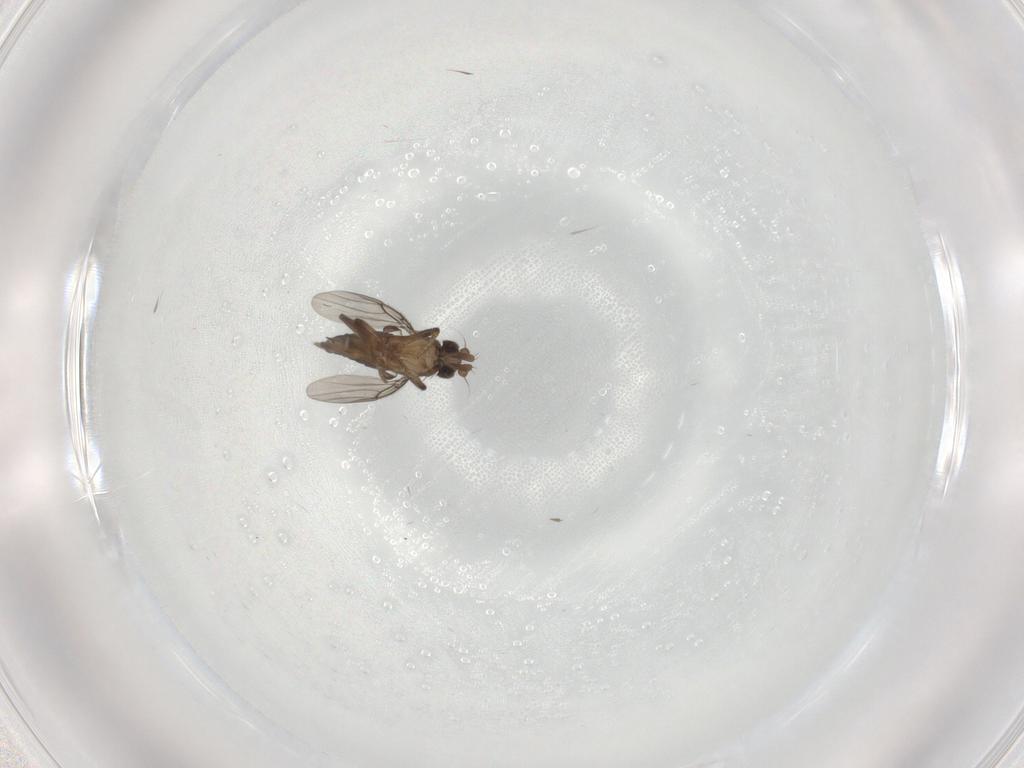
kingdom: Animalia
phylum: Arthropoda
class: Insecta
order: Diptera
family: Phoridae
